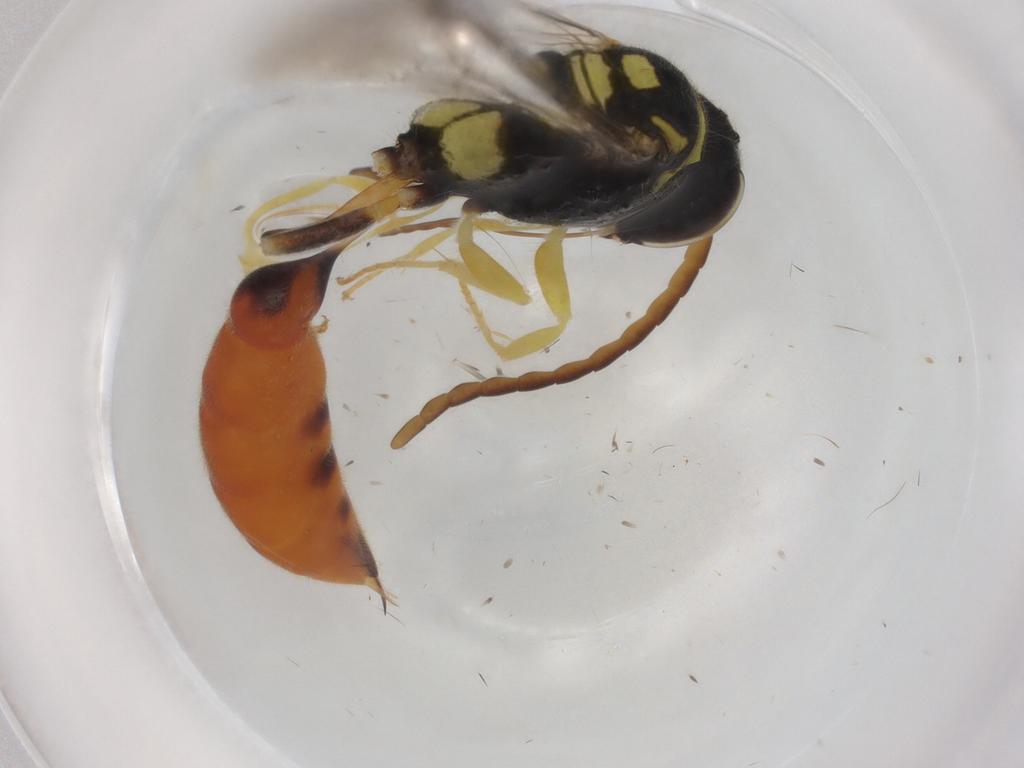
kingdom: Animalia
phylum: Arthropoda
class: Insecta
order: Hymenoptera
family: Crabronidae
